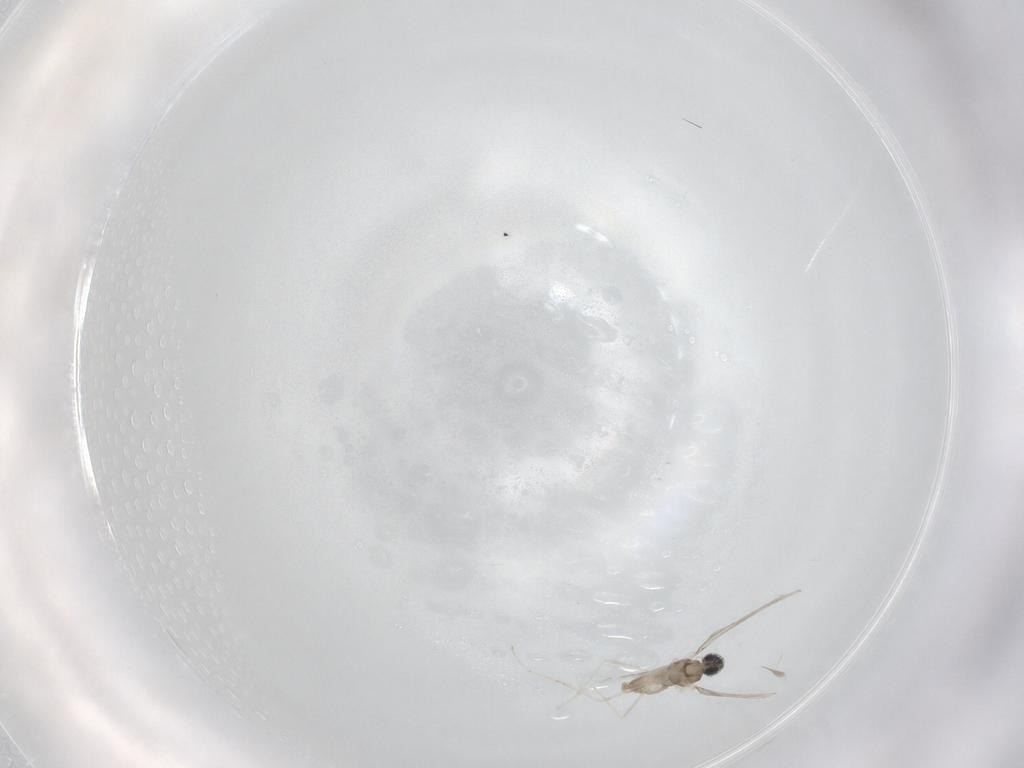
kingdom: Animalia
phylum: Arthropoda
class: Insecta
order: Diptera
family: Cecidomyiidae
